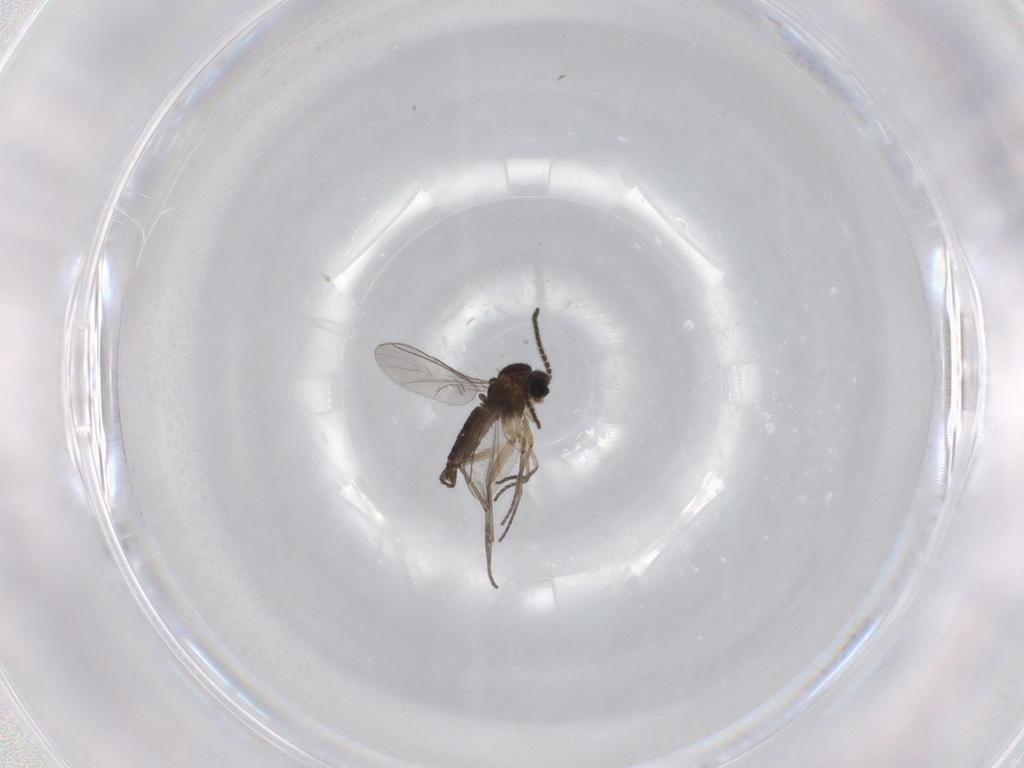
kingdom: Animalia
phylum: Arthropoda
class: Insecta
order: Diptera
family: Sciaridae
